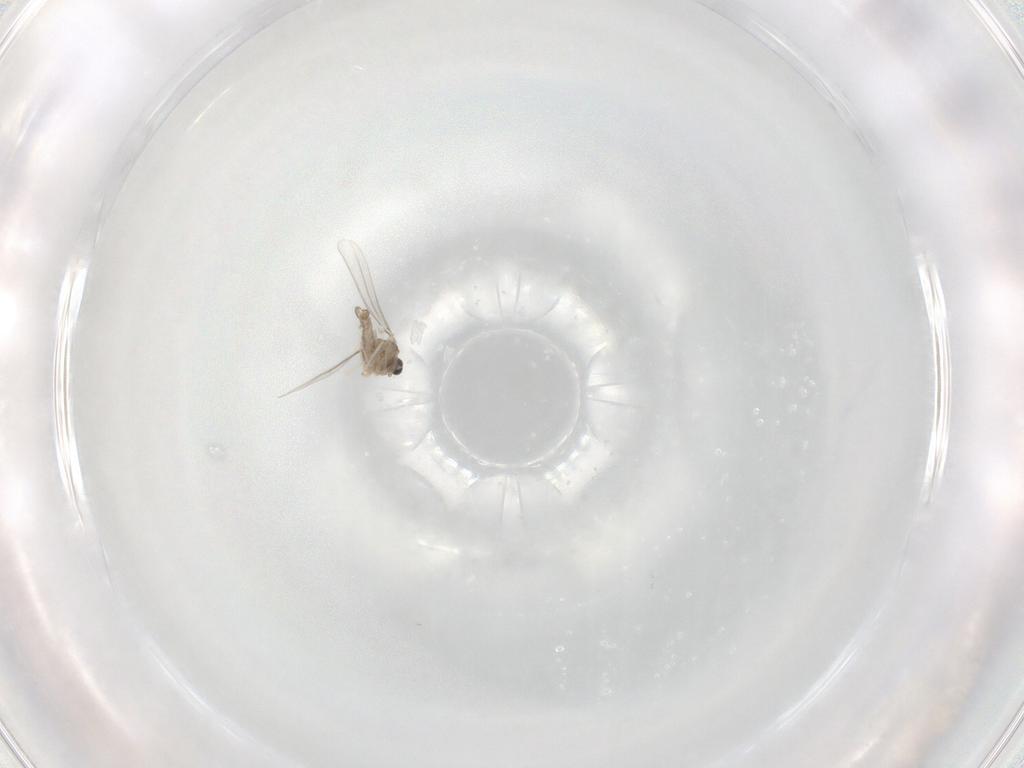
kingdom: Animalia
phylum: Arthropoda
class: Insecta
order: Diptera
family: Cecidomyiidae
